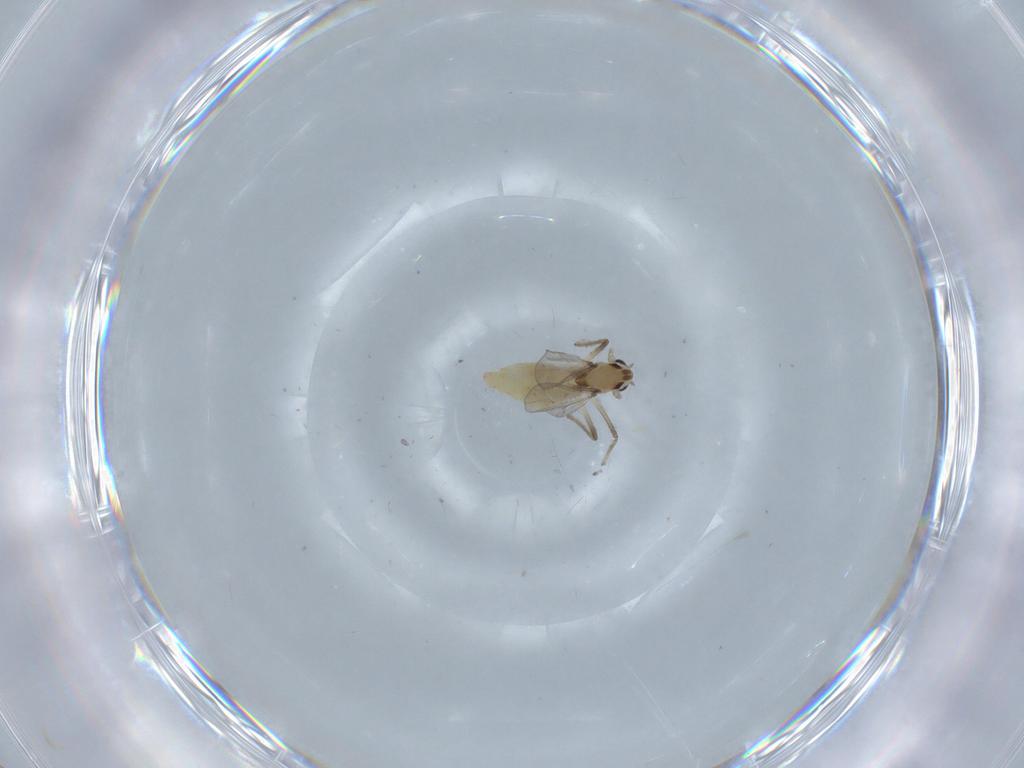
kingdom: Animalia
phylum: Arthropoda
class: Insecta
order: Diptera
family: Chironomidae
